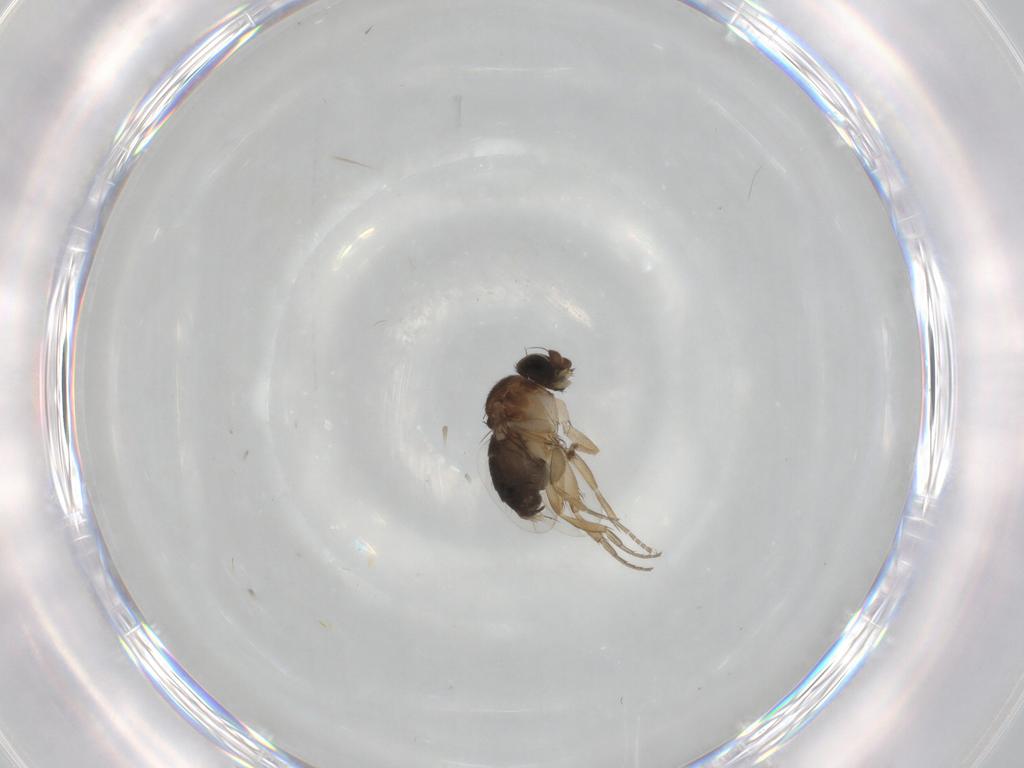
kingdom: Animalia
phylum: Arthropoda
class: Insecta
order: Diptera
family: Phoridae
